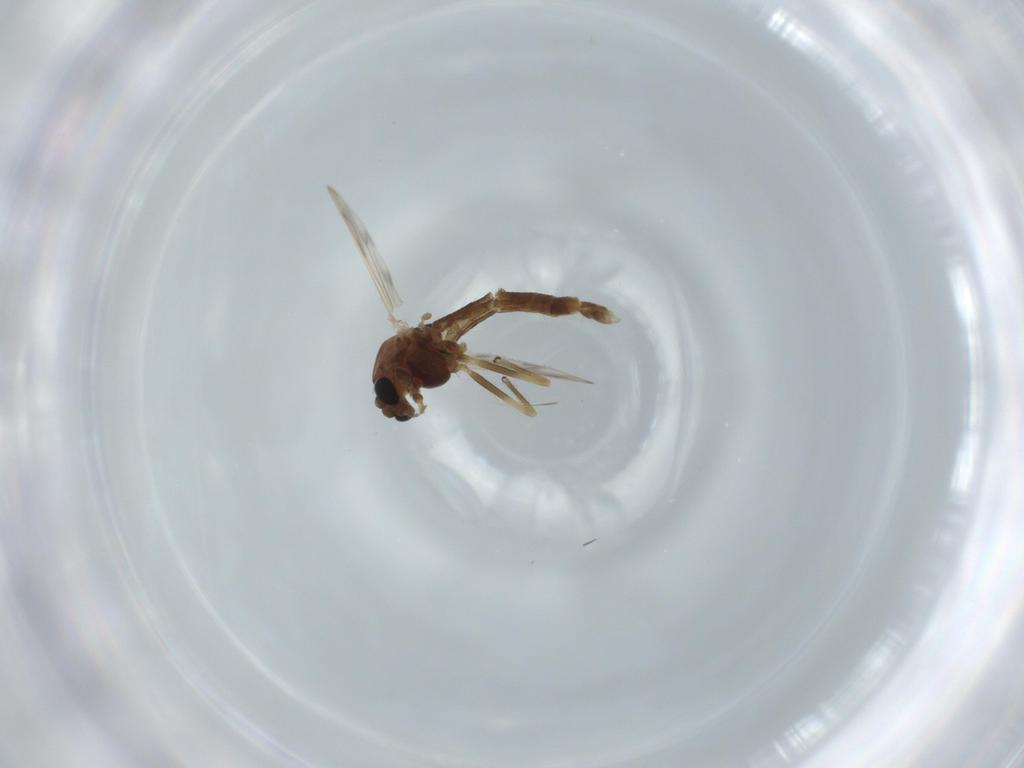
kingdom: Animalia
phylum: Arthropoda
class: Insecta
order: Diptera
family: Chironomidae
